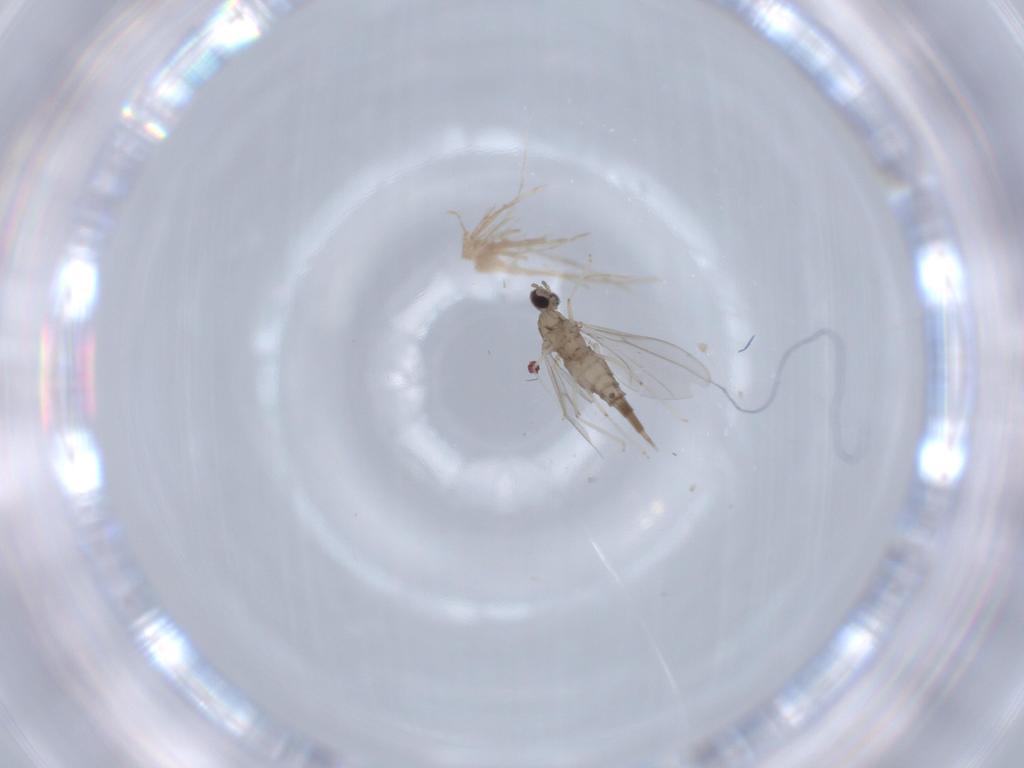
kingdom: Animalia
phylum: Arthropoda
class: Insecta
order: Diptera
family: Cecidomyiidae
